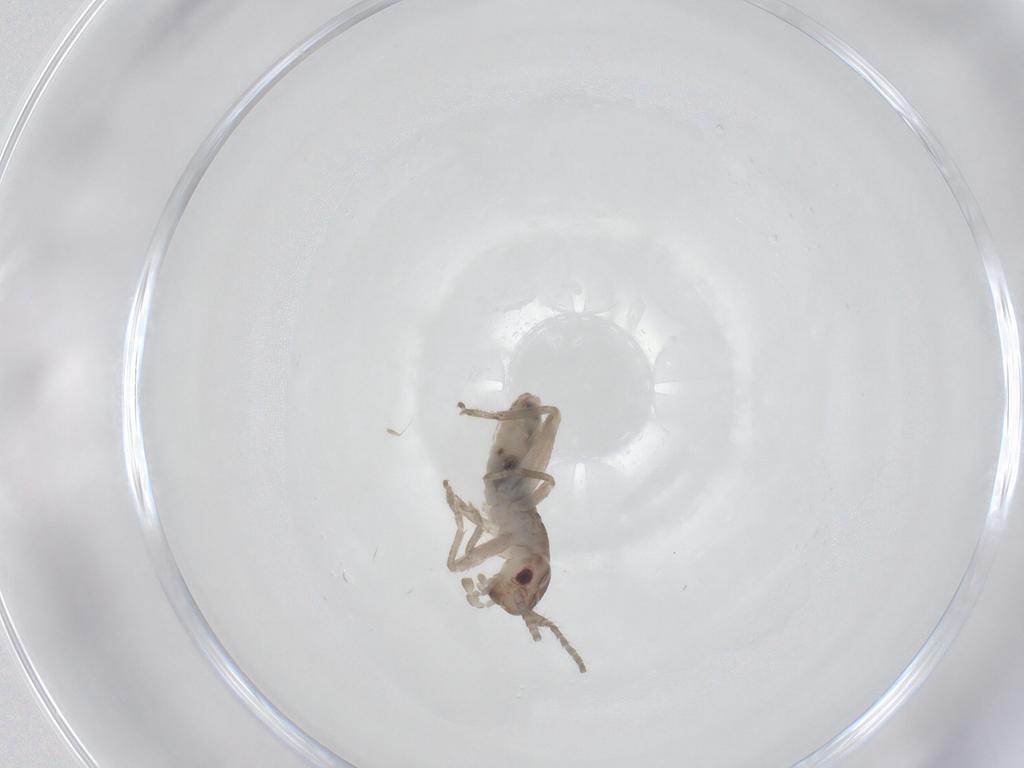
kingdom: Animalia
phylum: Arthropoda
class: Insecta
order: Orthoptera
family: Mogoplistidae
